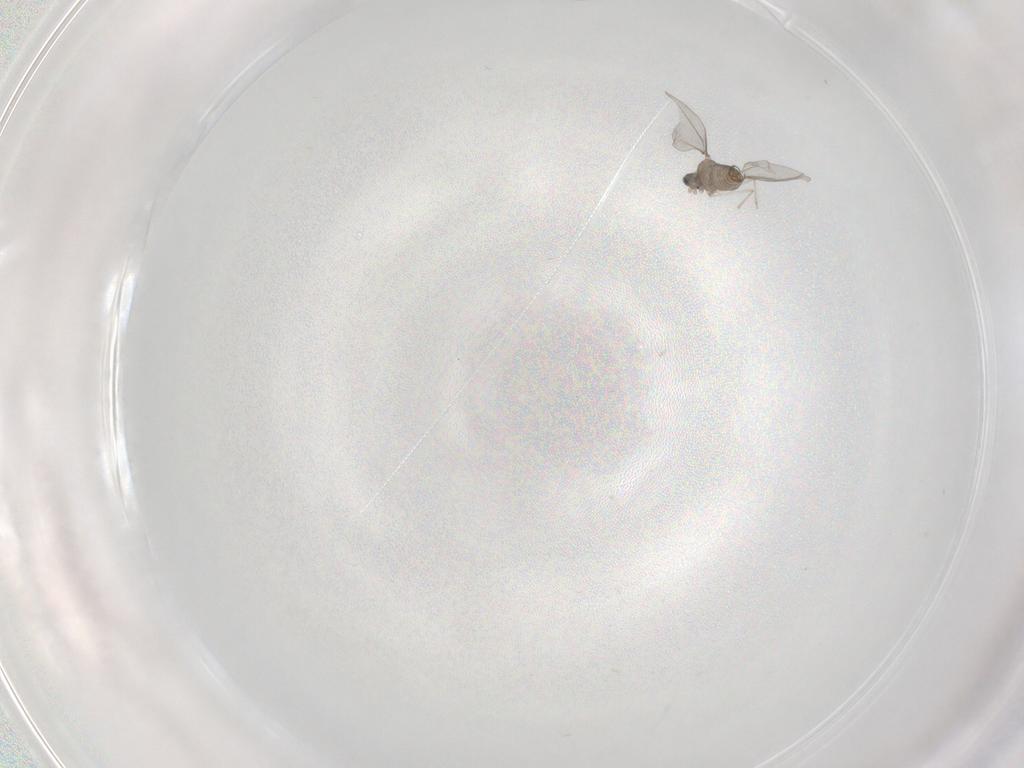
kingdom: Animalia
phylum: Arthropoda
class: Insecta
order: Diptera
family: Cecidomyiidae
